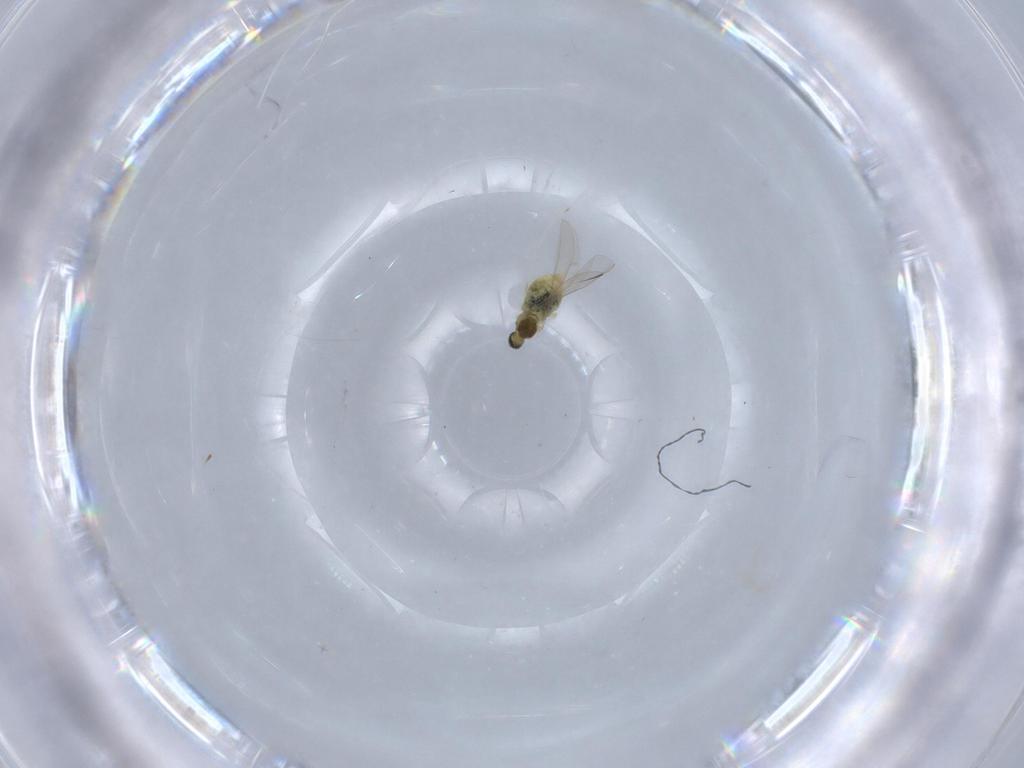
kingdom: Animalia
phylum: Arthropoda
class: Insecta
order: Diptera
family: Cecidomyiidae
